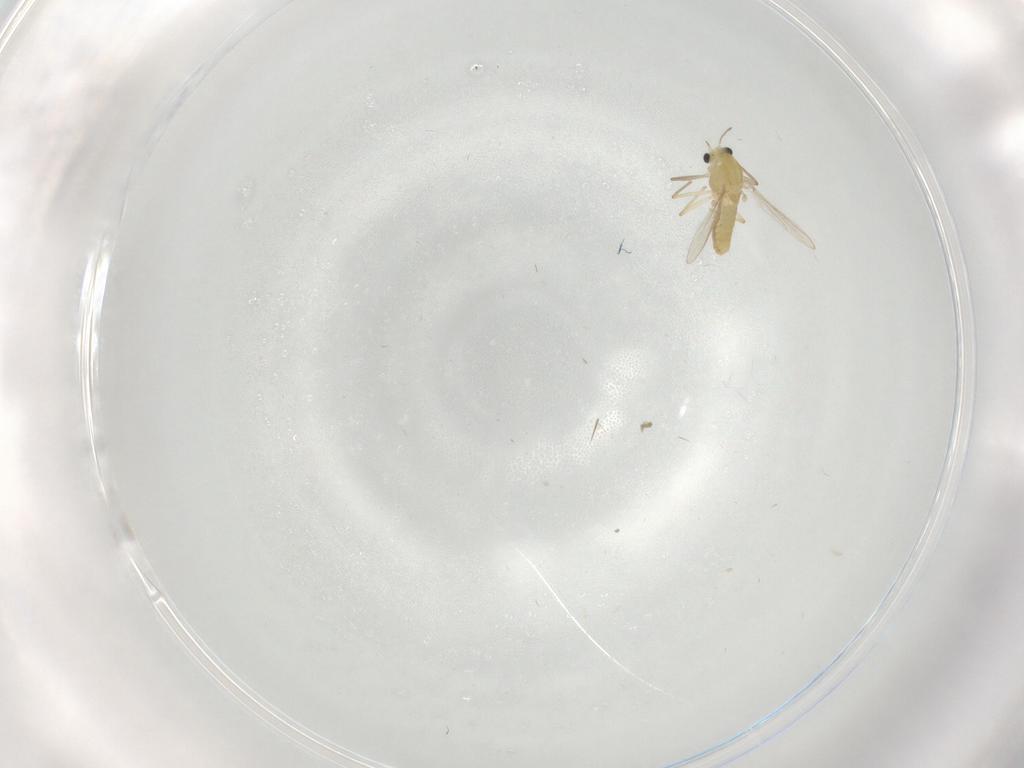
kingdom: Animalia
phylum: Arthropoda
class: Insecta
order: Diptera
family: Chironomidae
